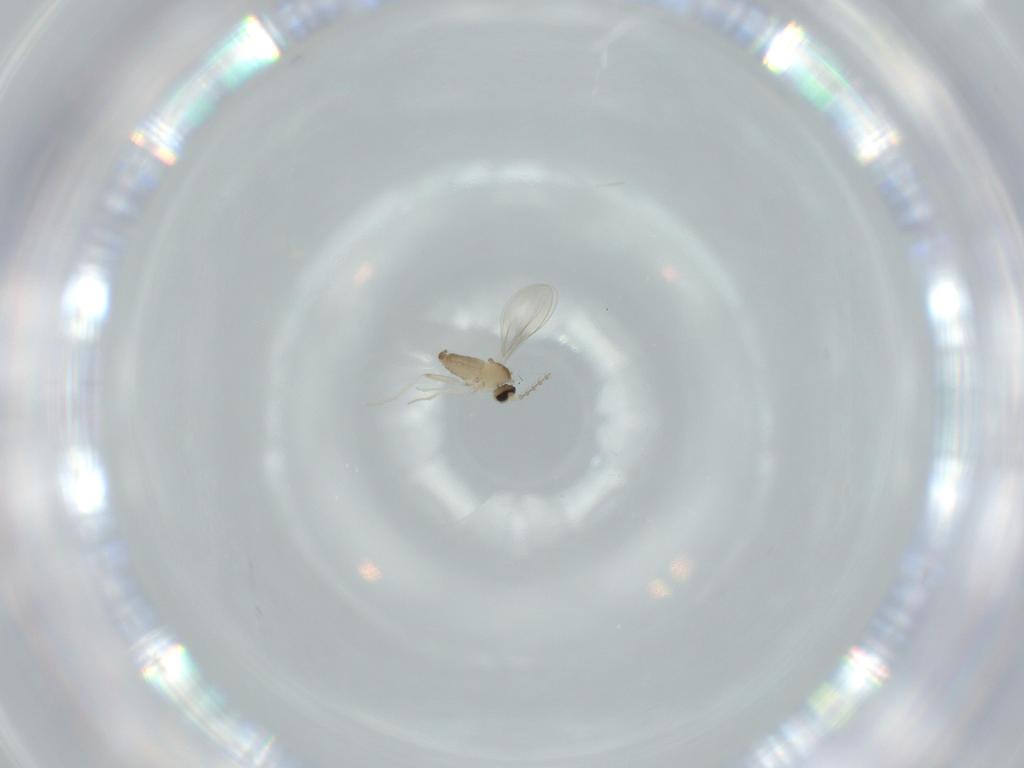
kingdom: Animalia
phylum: Arthropoda
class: Insecta
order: Diptera
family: Cecidomyiidae
